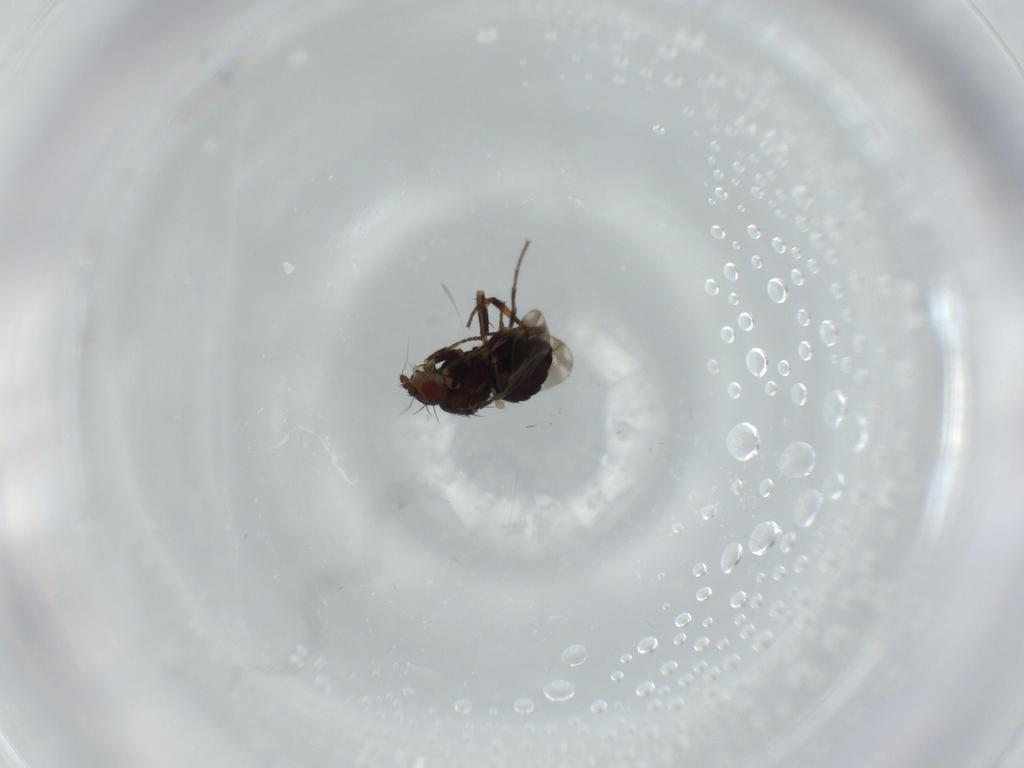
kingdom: Animalia
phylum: Arthropoda
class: Insecta
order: Diptera
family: Sphaeroceridae
